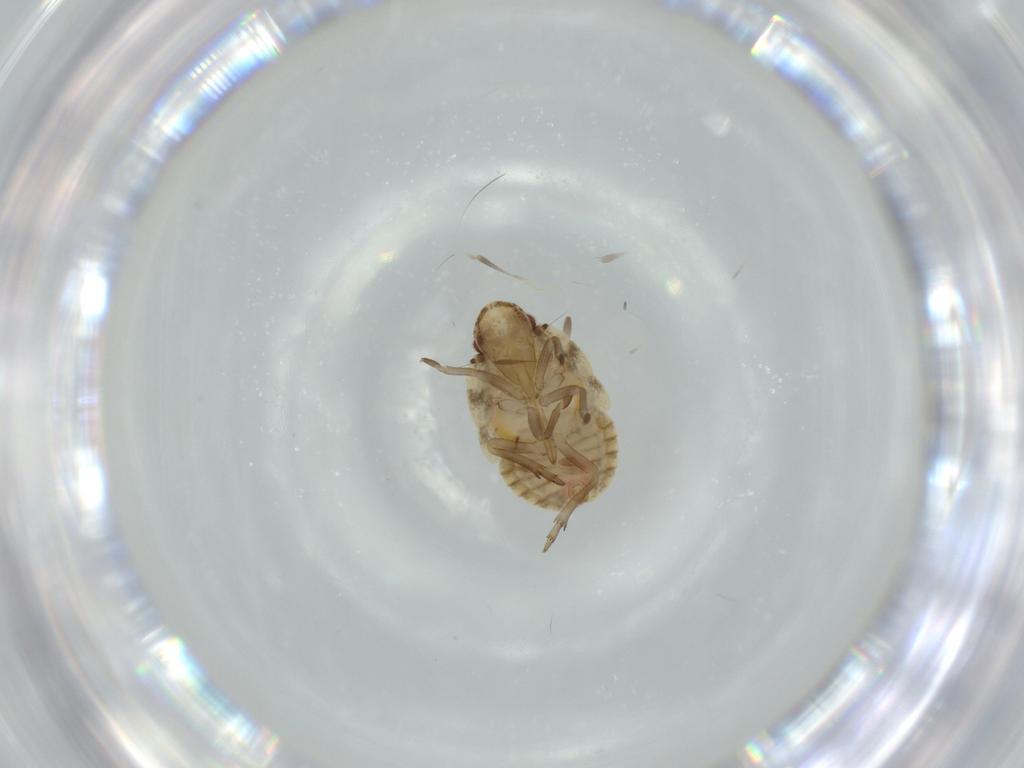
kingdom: Animalia
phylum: Arthropoda
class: Insecta
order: Hemiptera
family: Flatidae
